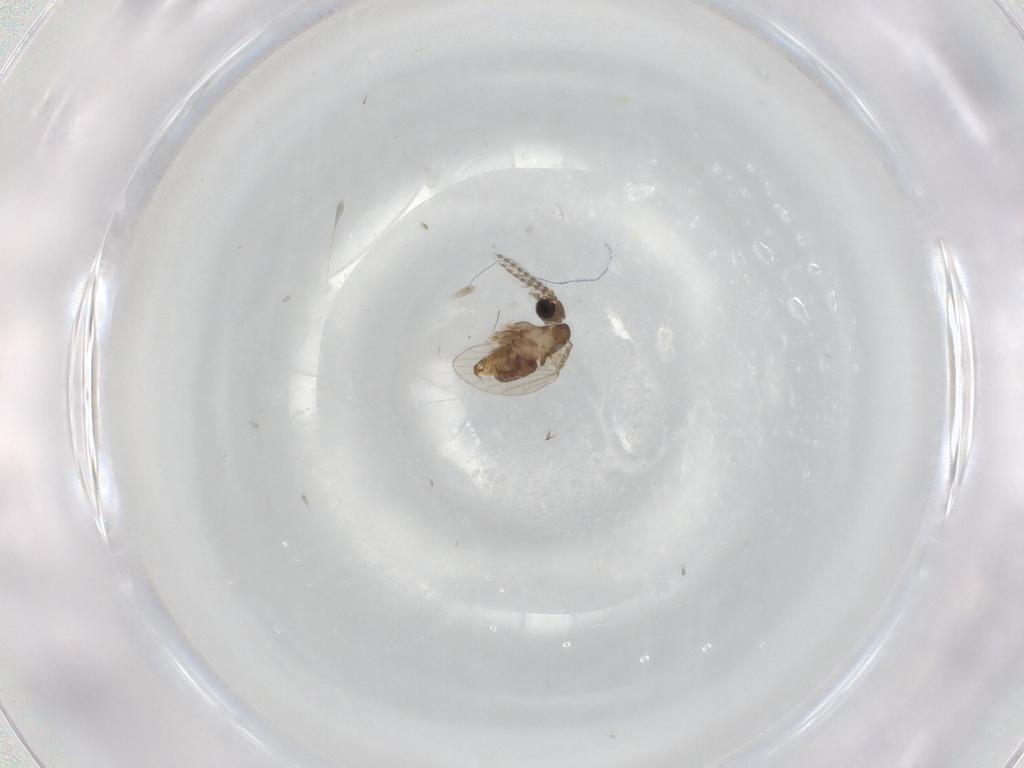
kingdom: Animalia
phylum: Arthropoda
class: Insecta
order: Diptera
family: Psychodidae
